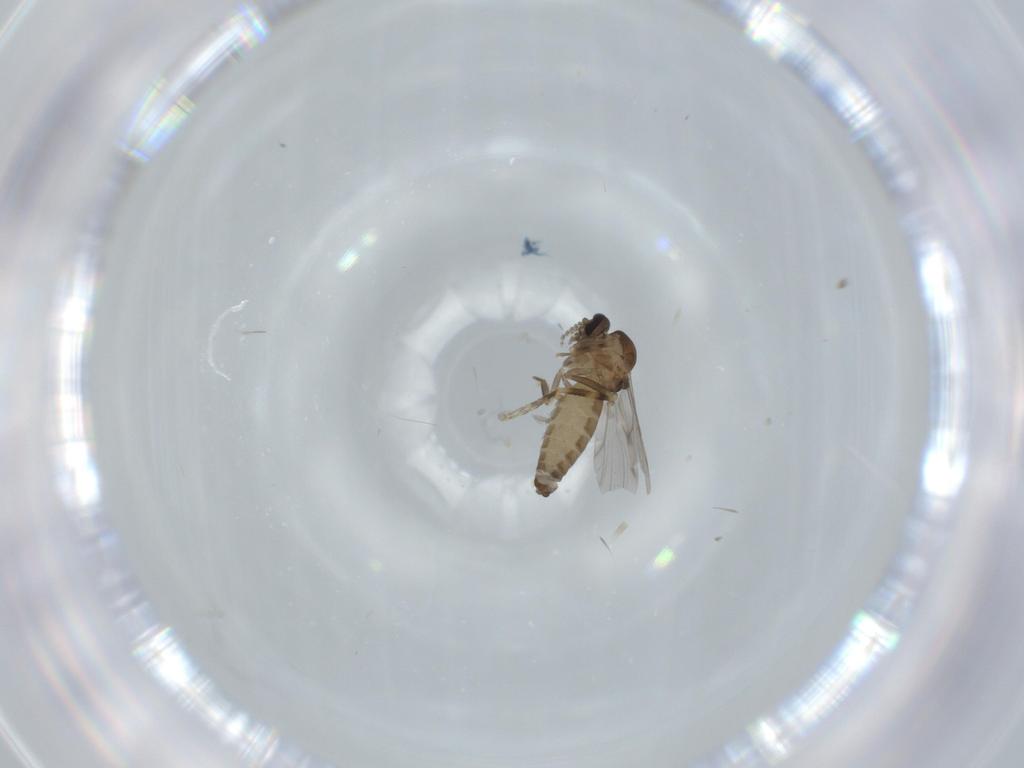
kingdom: Animalia
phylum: Arthropoda
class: Insecta
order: Diptera
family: Ceratopogonidae
